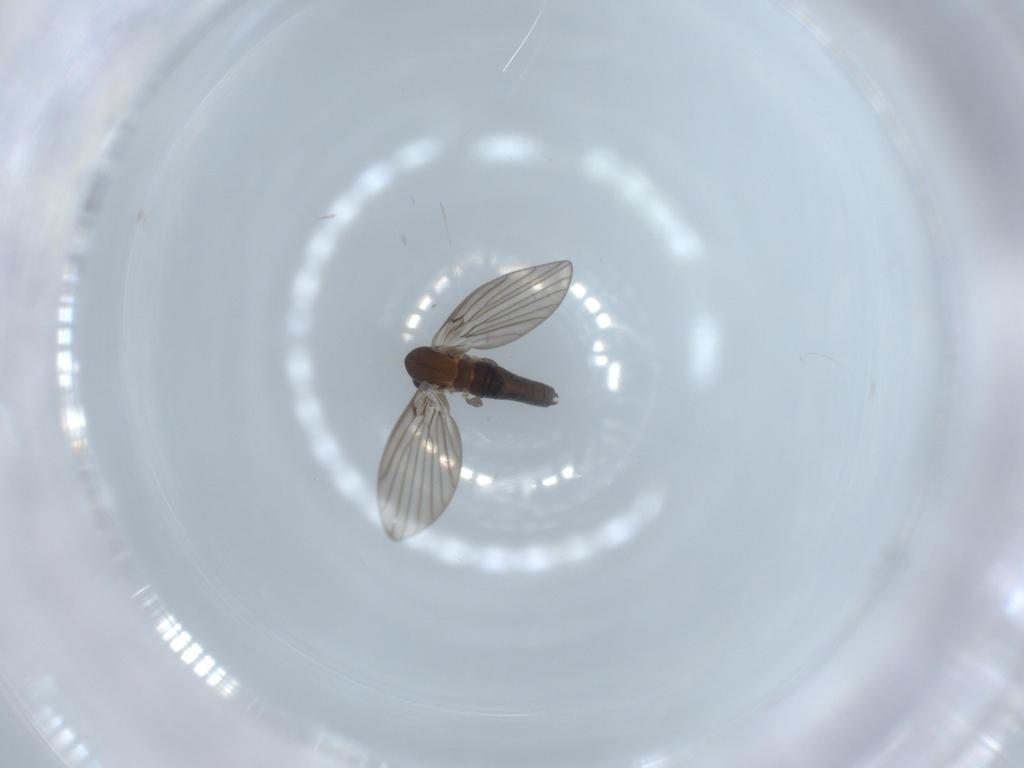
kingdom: Animalia
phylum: Arthropoda
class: Insecta
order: Diptera
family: Psychodidae
